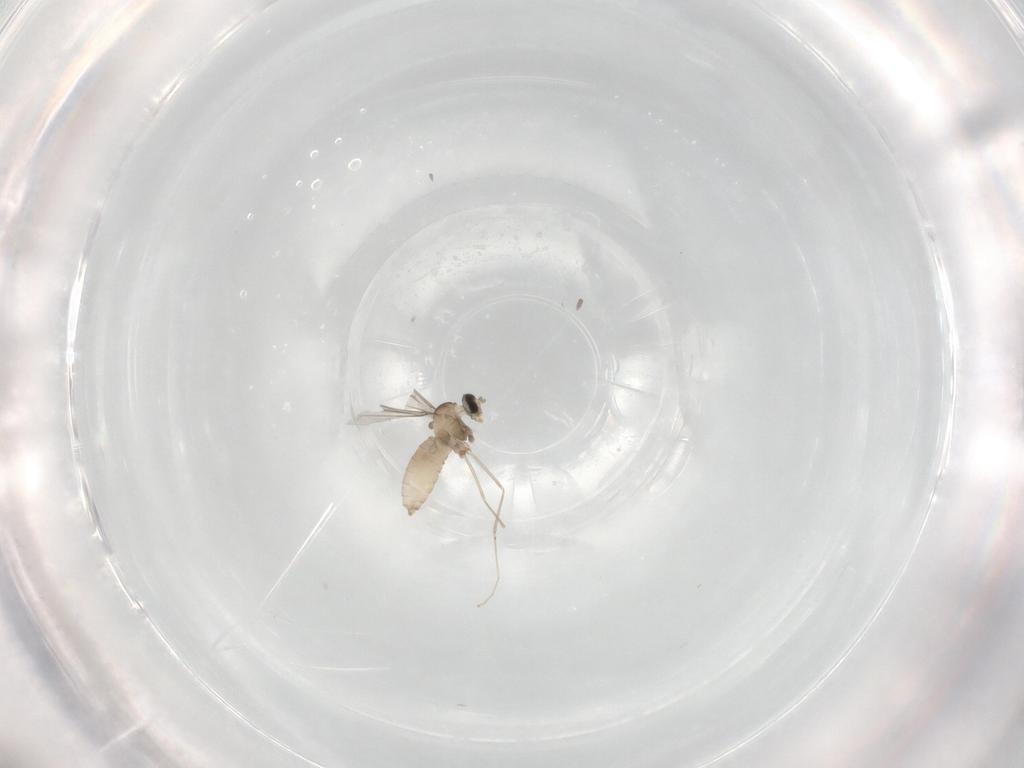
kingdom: Animalia
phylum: Arthropoda
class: Insecta
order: Diptera
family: Cecidomyiidae
